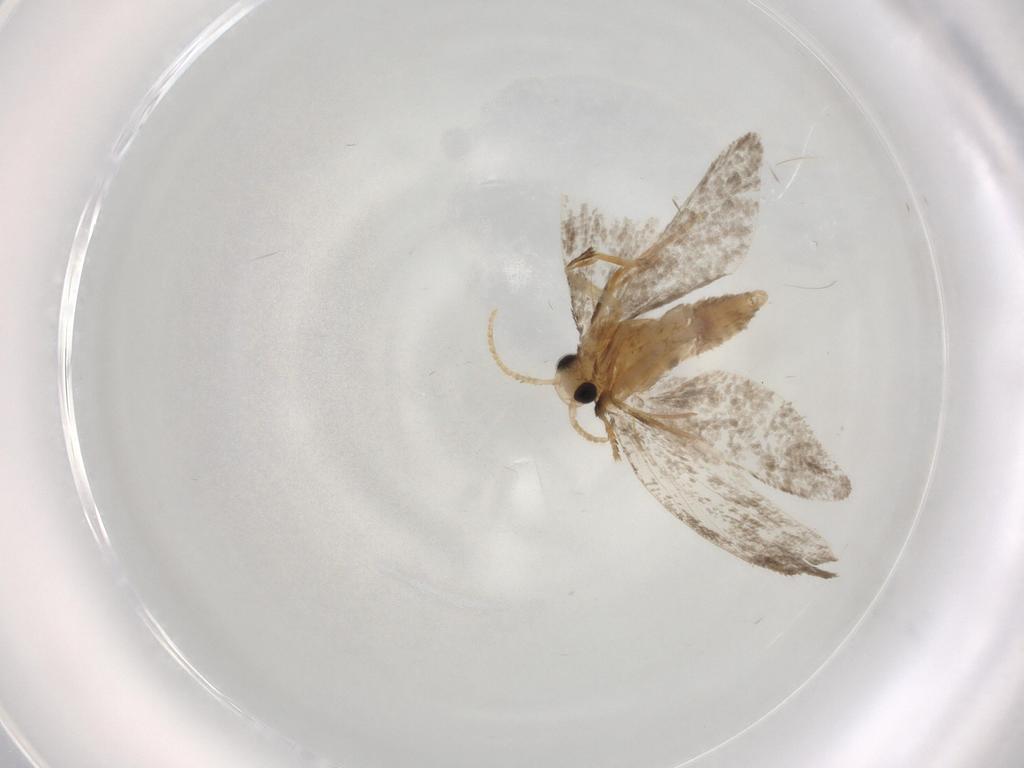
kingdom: Animalia
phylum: Arthropoda
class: Insecta
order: Lepidoptera
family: Psychidae
